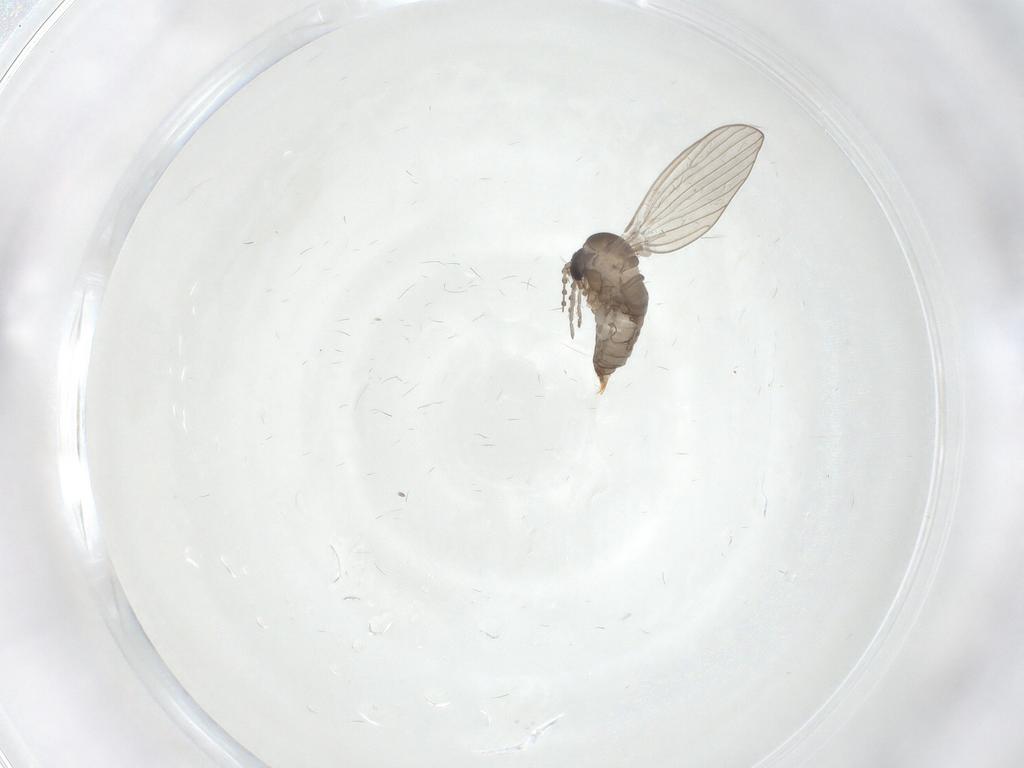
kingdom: Animalia
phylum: Arthropoda
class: Insecta
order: Diptera
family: Psychodidae
